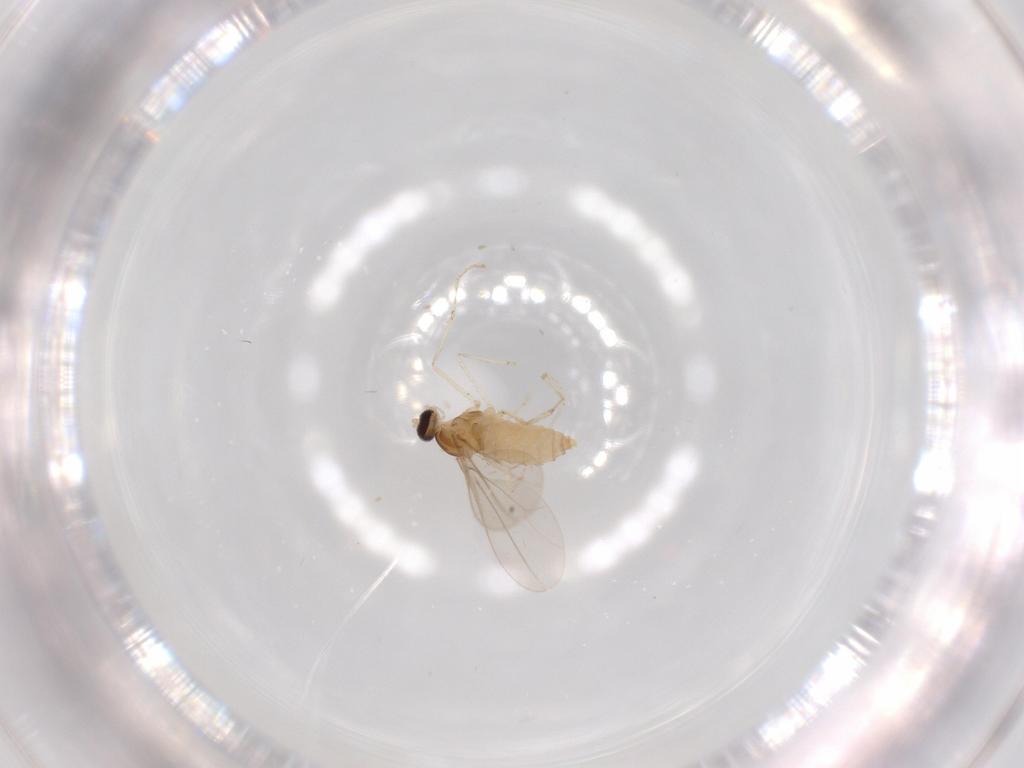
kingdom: Animalia
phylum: Arthropoda
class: Insecta
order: Diptera
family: Cecidomyiidae
